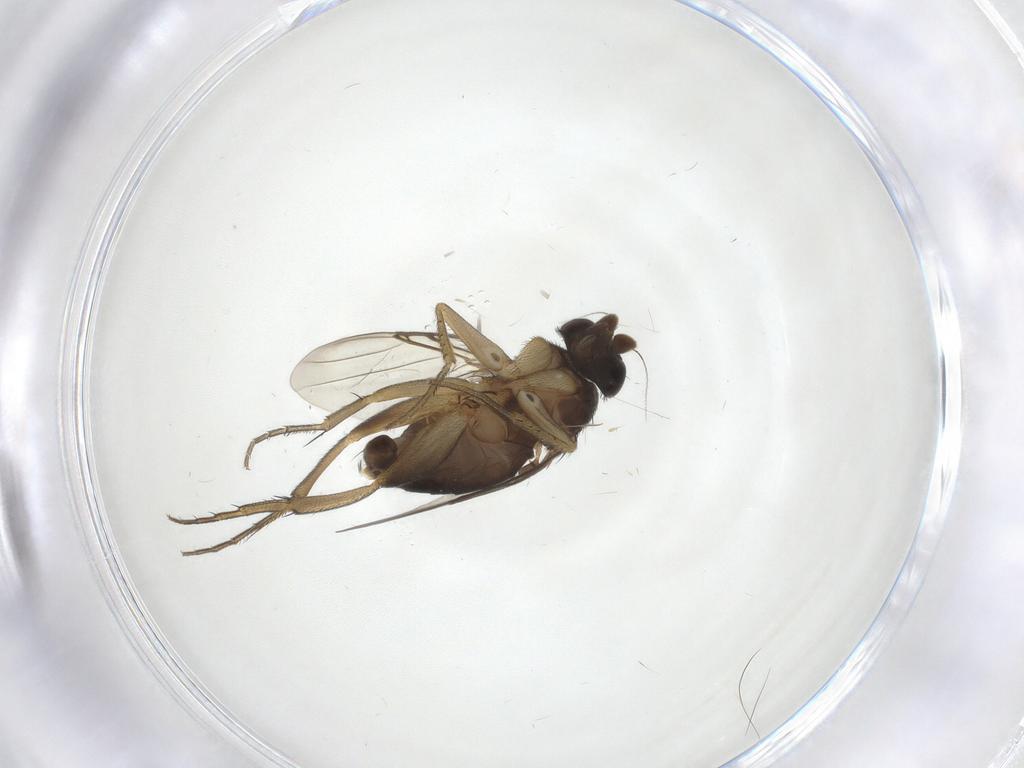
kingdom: Animalia
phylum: Arthropoda
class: Insecta
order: Diptera
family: Phoridae
